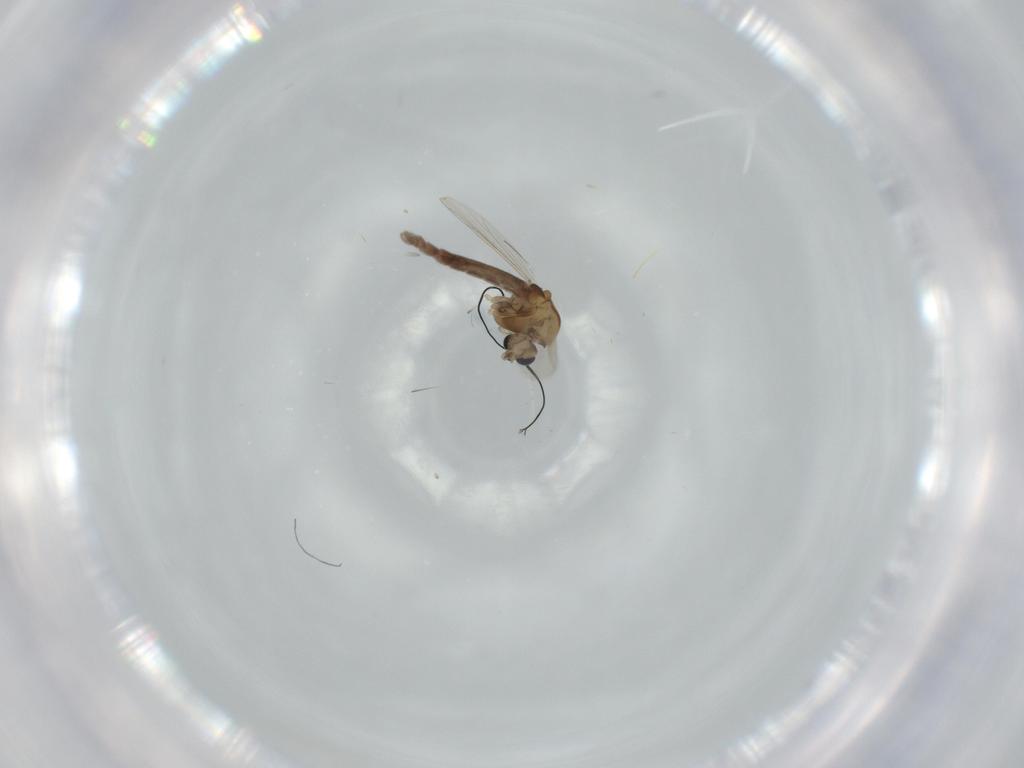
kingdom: Animalia
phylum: Arthropoda
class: Insecta
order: Diptera
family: Chironomidae
